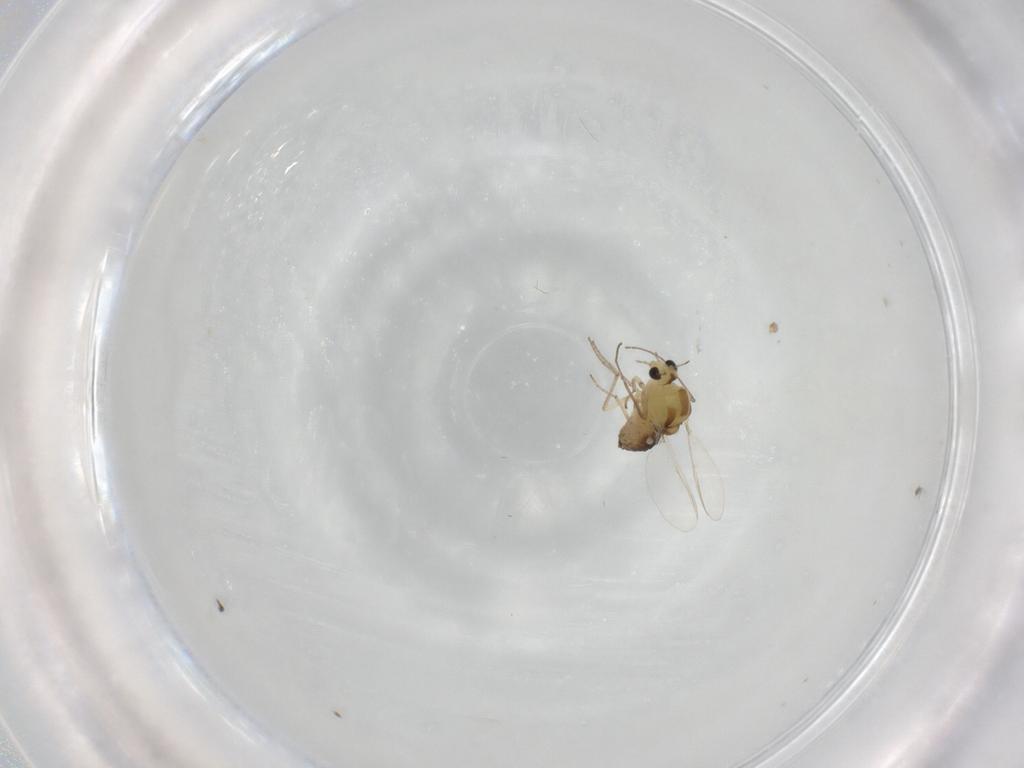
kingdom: Animalia
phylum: Arthropoda
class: Insecta
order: Diptera
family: Chironomidae
